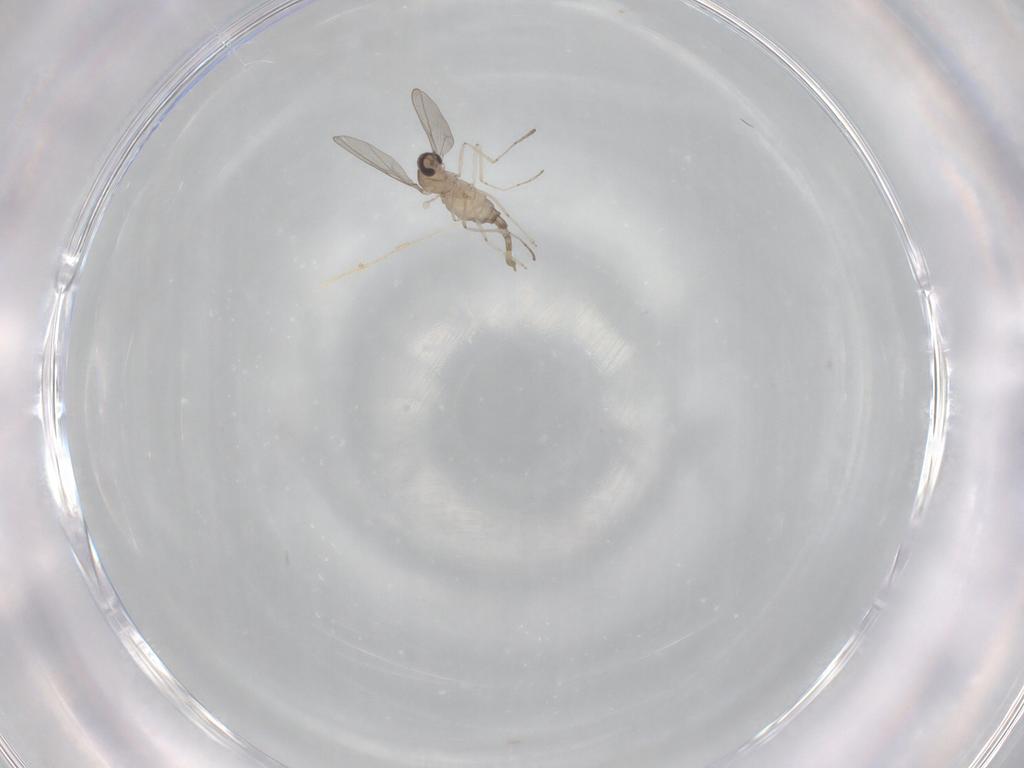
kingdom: Animalia
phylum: Arthropoda
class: Insecta
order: Diptera
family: Cecidomyiidae
